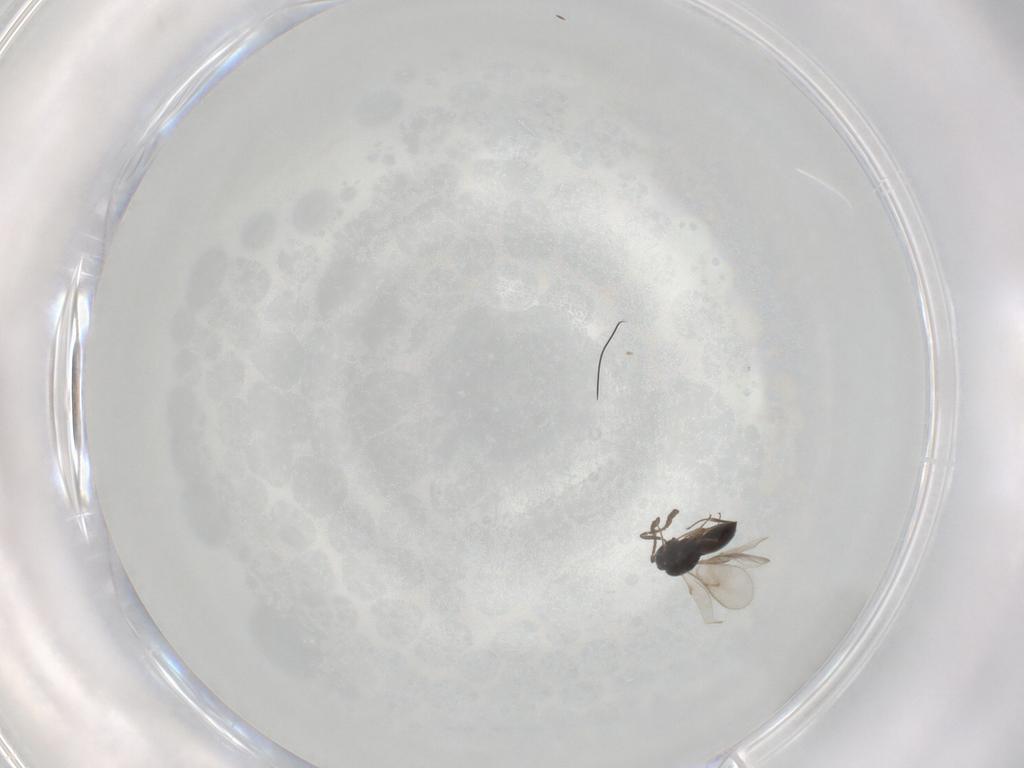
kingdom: Animalia
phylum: Arthropoda
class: Insecta
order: Hymenoptera
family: Scelionidae
